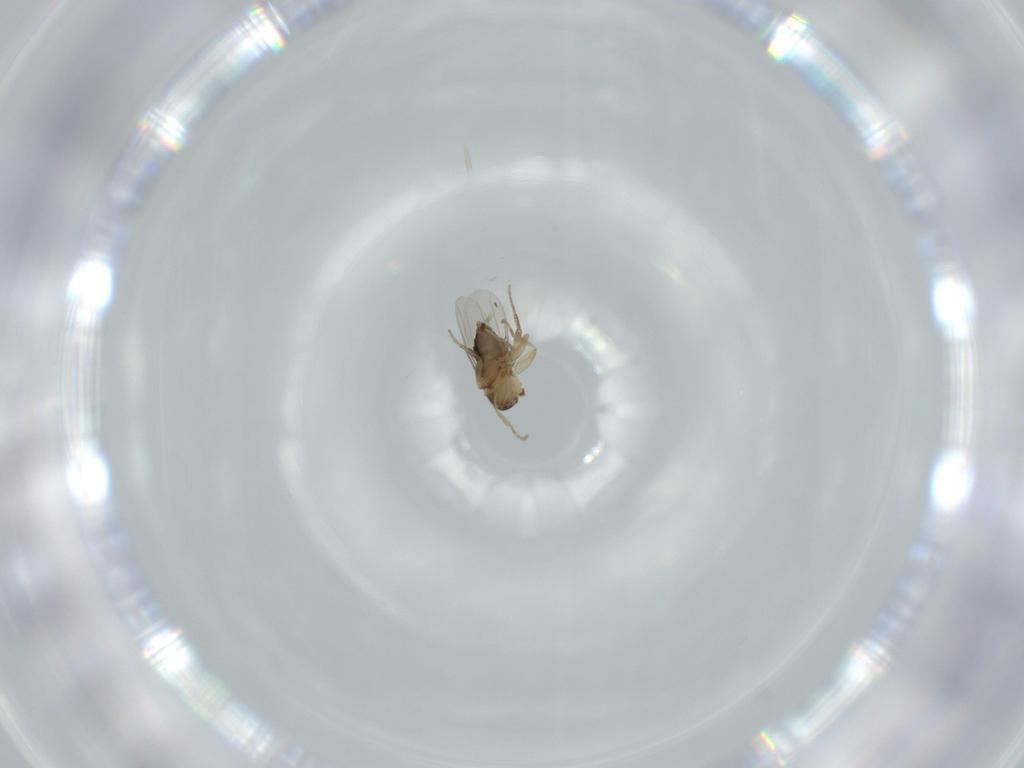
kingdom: Animalia
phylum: Arthropoda
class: Insecta
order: Diptera
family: Phoridae
